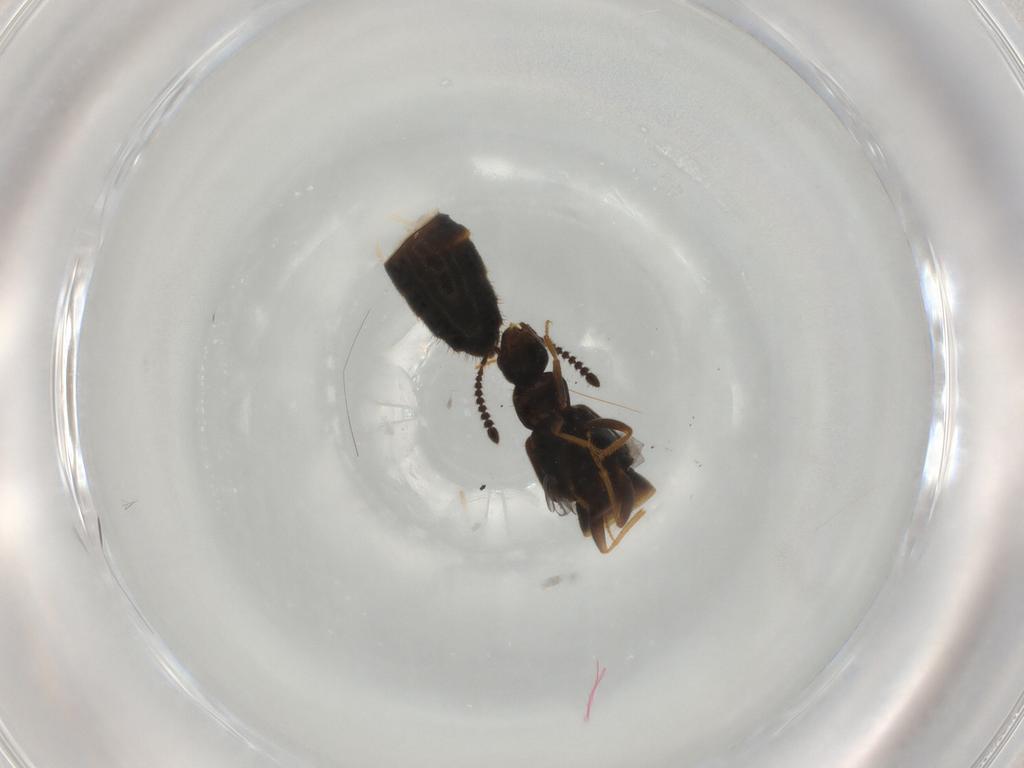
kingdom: Animalia
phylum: Arthropoda
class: Insecta
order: Coleoptera
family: Staphylinidae
